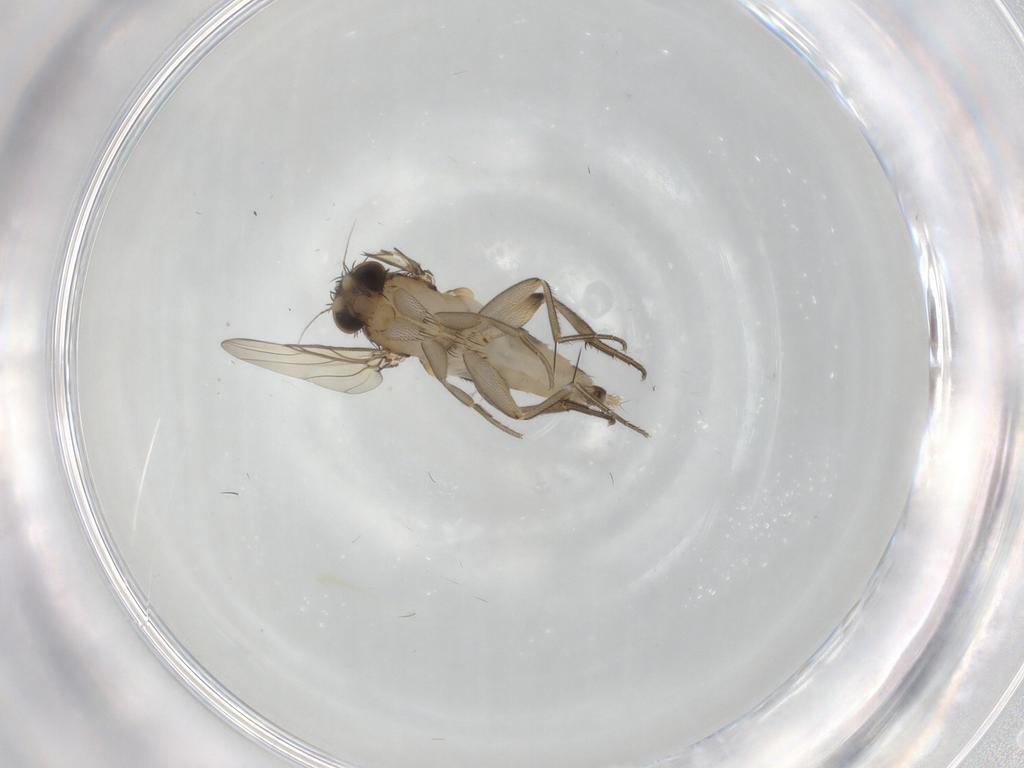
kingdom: Animalia
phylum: Arthropoda
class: Insecta
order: Diptera
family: Phoridae
